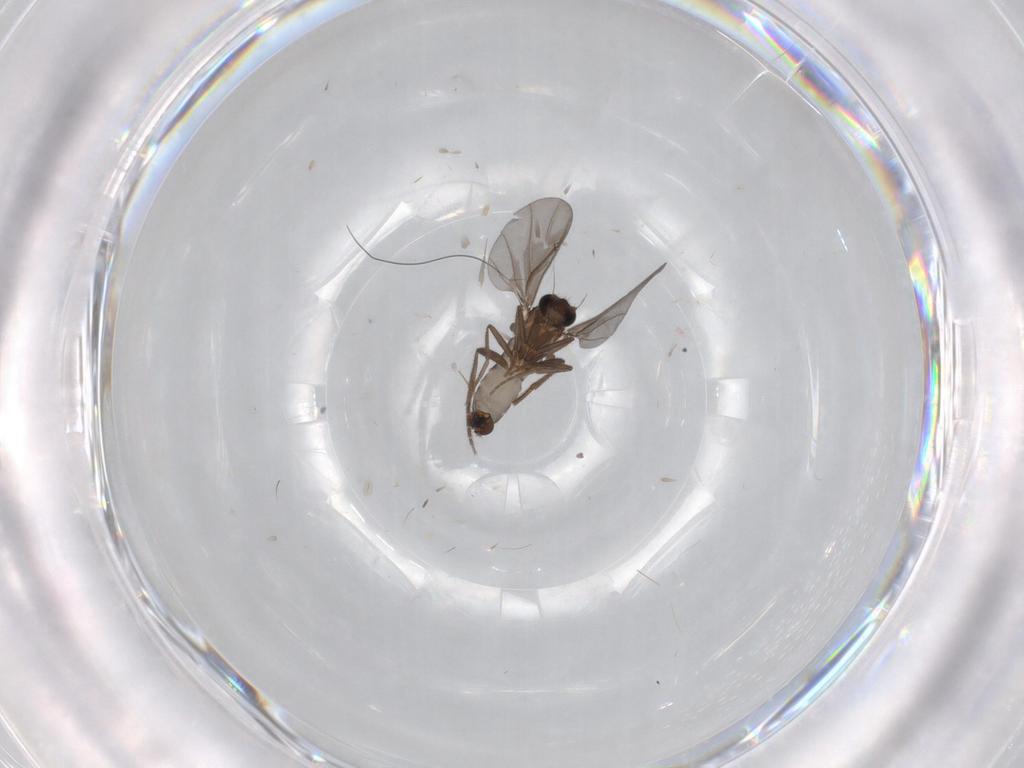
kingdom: Animalia
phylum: Arthropoda
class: Insecta
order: Diptera
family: Phoridae
